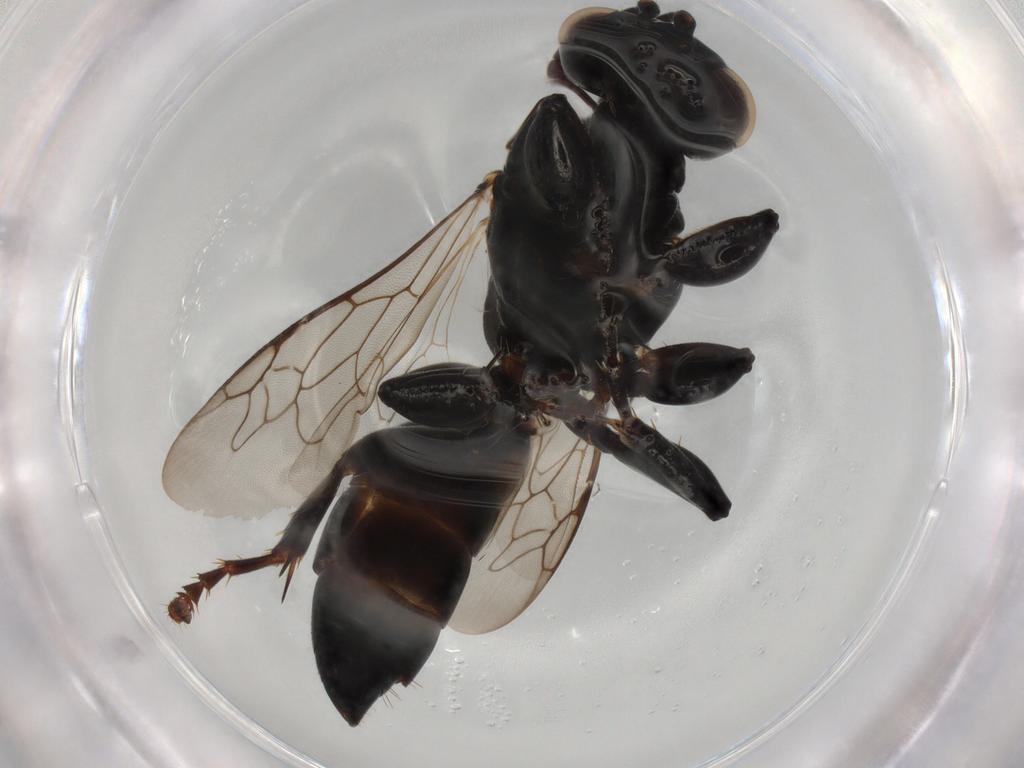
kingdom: Animalia
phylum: Arthropoda
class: Insecta
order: Hymenoptera
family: Crabronidae
